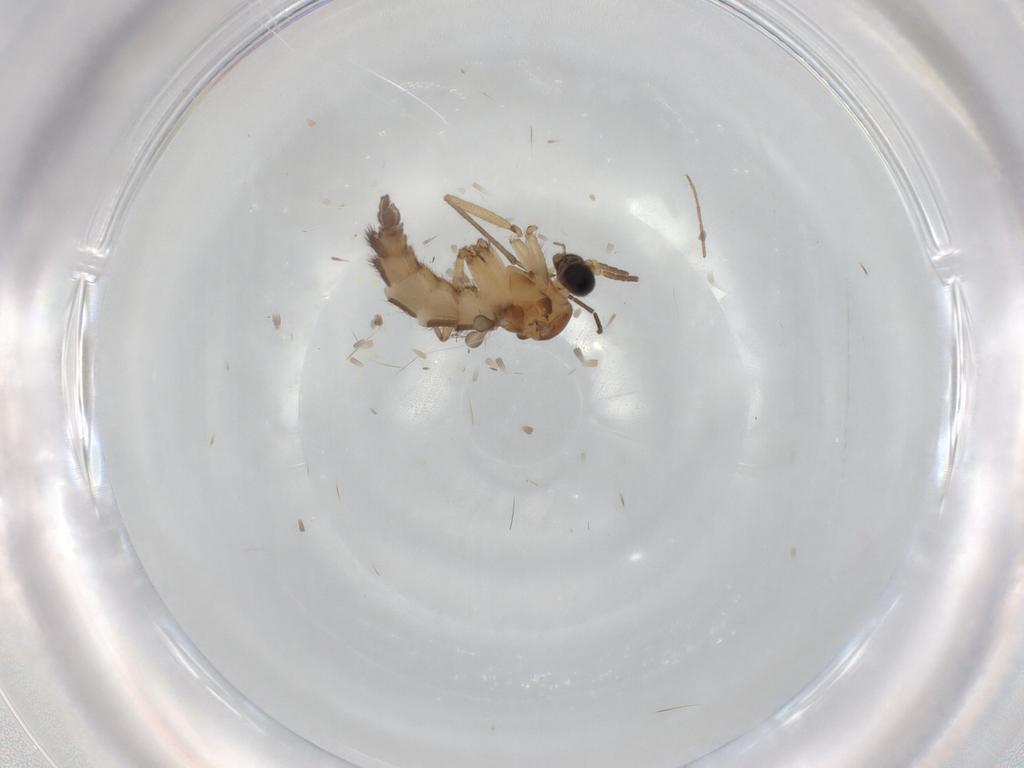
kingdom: Animalia
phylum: Arthropoda
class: Insecta
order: Diptera
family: Sciaridae
